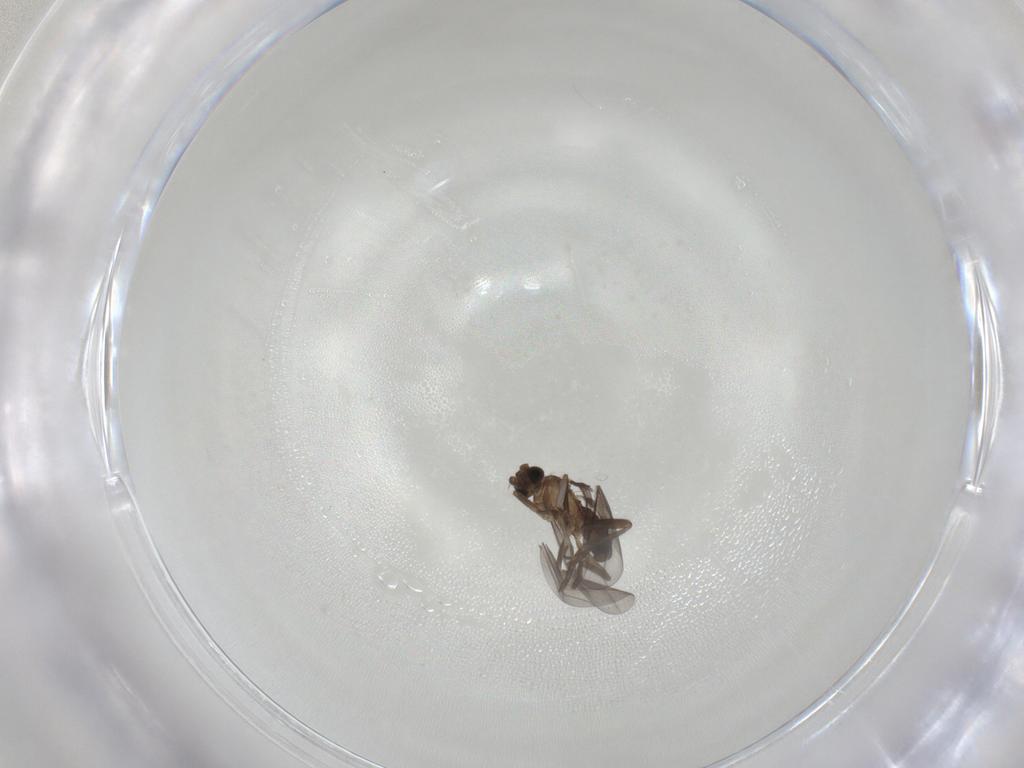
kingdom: Animalia
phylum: Arthropoda
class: Insecta
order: Diptera
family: Phoridae
